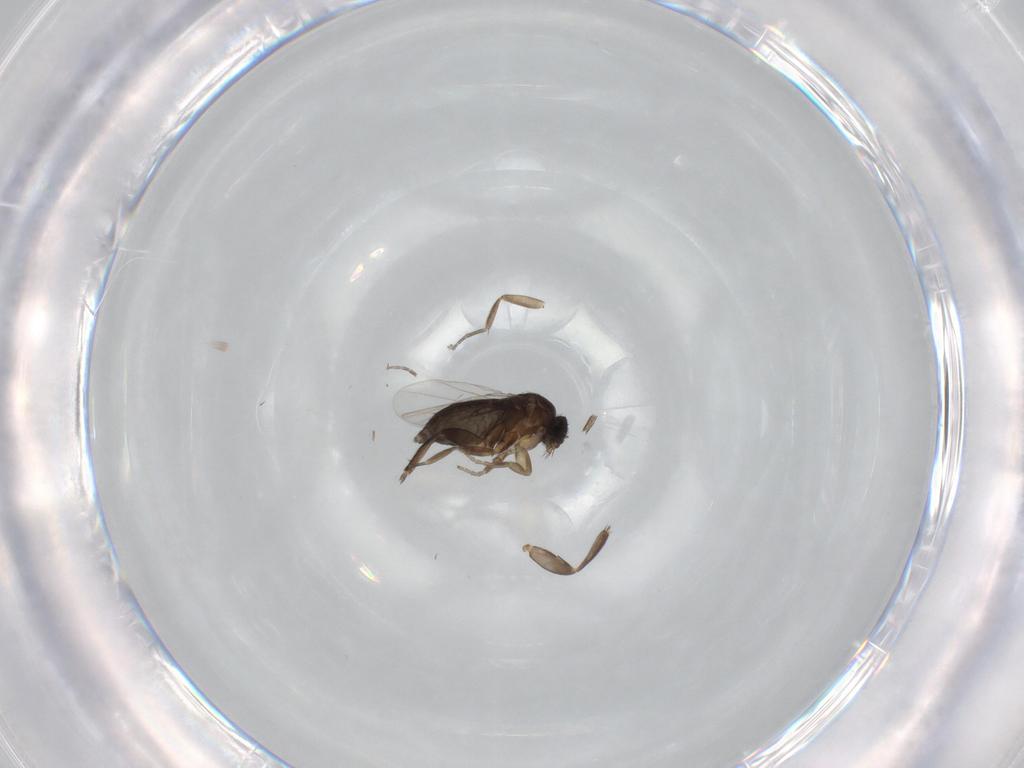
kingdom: Animalia
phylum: Arthropoda
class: Insecta
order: Diptera
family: Phoridae
